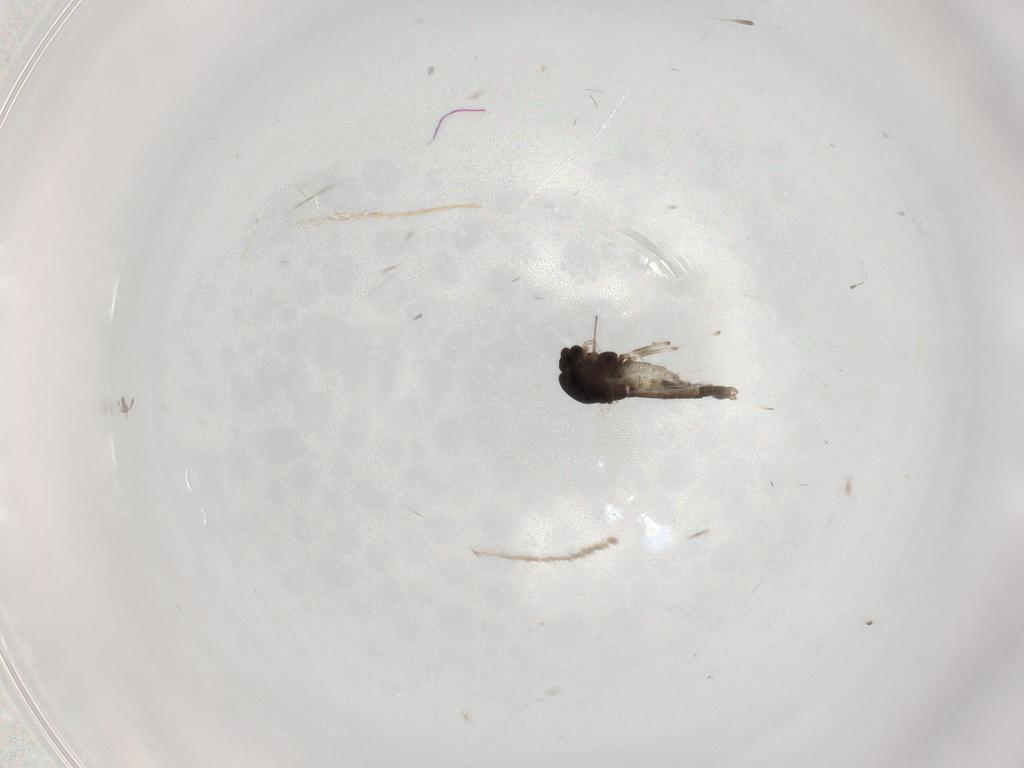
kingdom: Animalia
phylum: Arthropoda
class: Insecta
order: Diptera
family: Chironomidae
